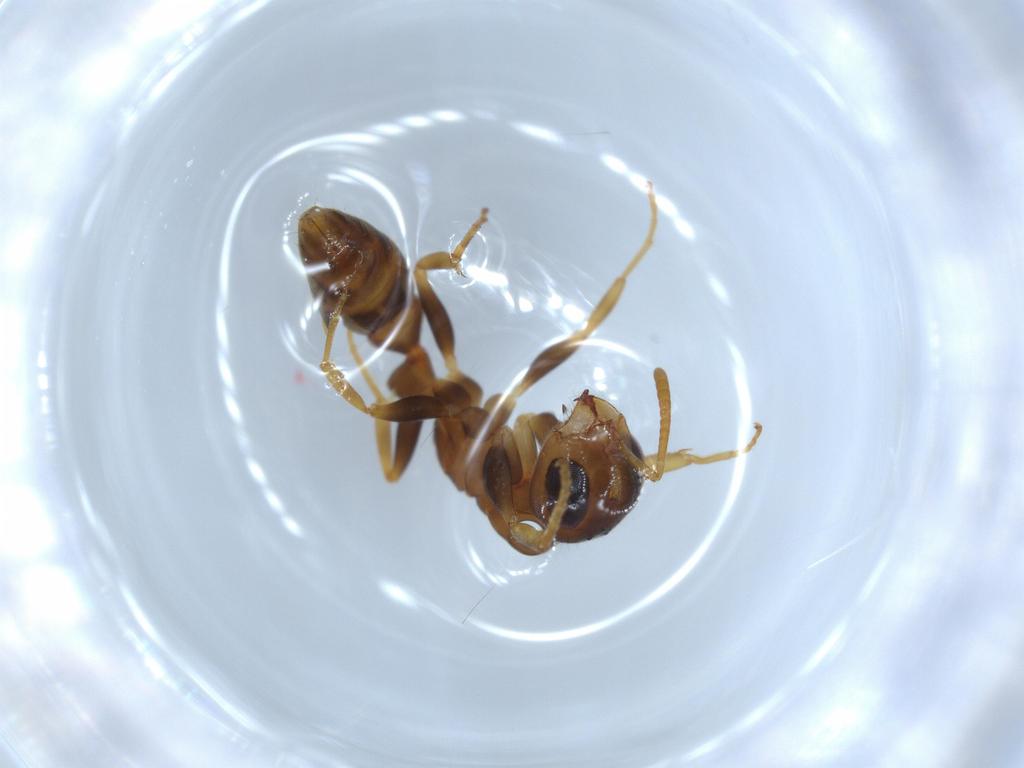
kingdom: Animalia
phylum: Arthropoda
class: Insecta
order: Hymenoptera
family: Formicidae
